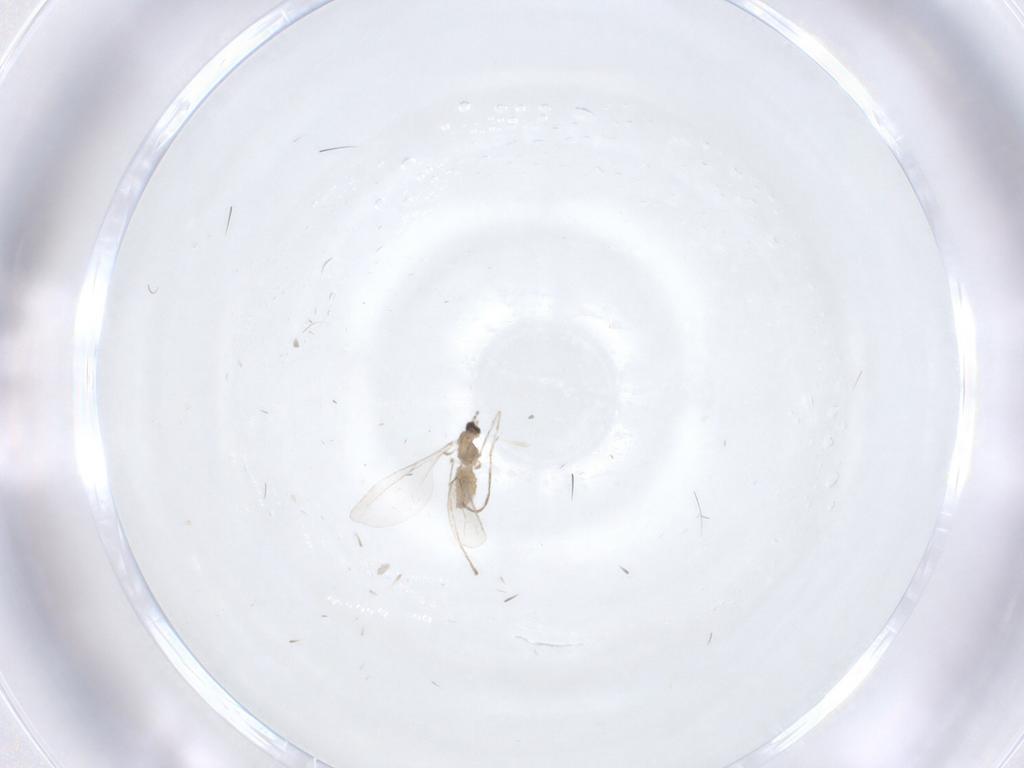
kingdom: Animalia
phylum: Arthropoda
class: Insecta
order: Diptera
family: Cecidomyiidae
